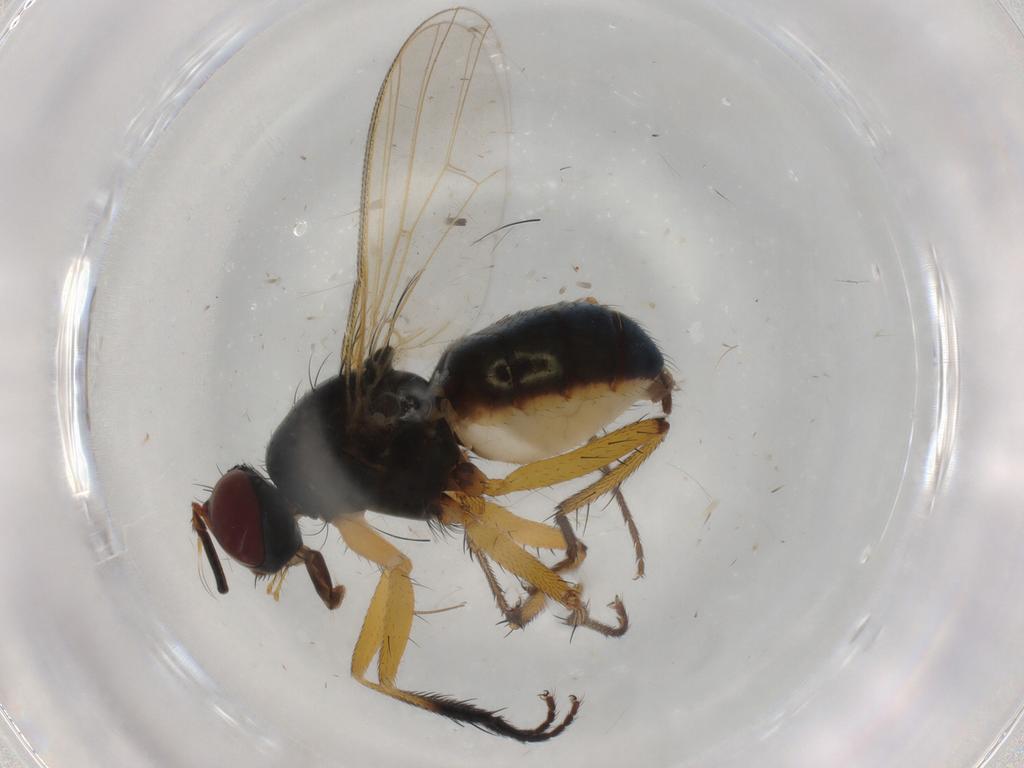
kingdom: Animalia
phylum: Arthropoda
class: Insecta
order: Diptera
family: Muscidae
